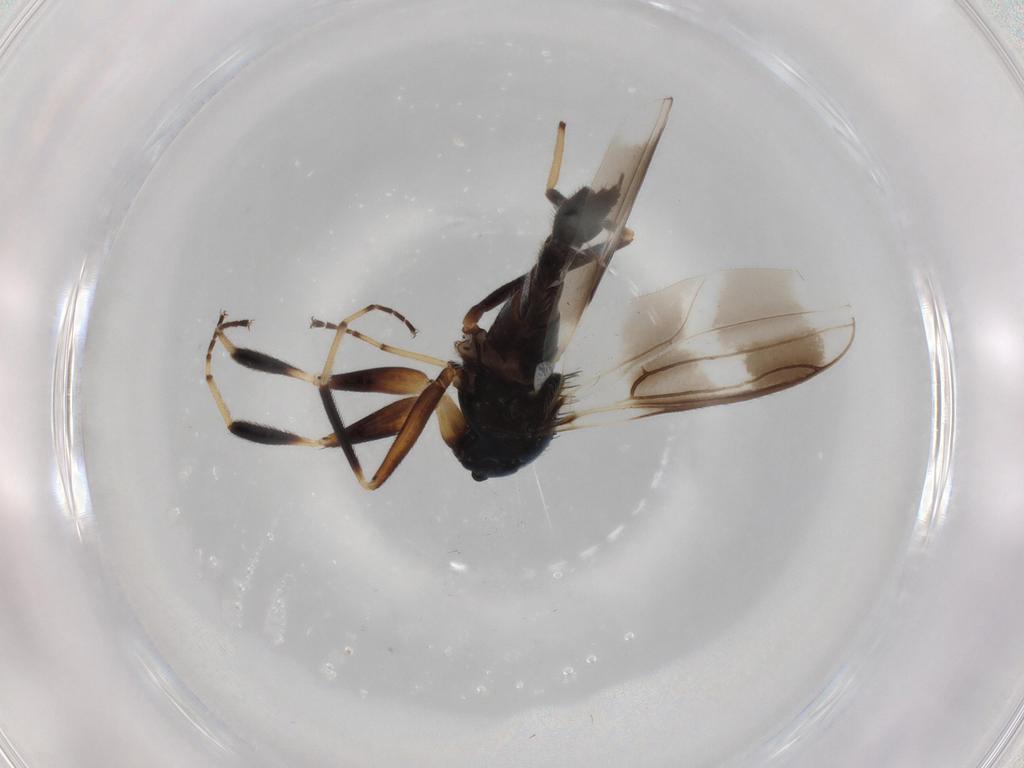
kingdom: Animalia
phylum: Arthropoda
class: Insecta
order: Diptera
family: Hybotidae
